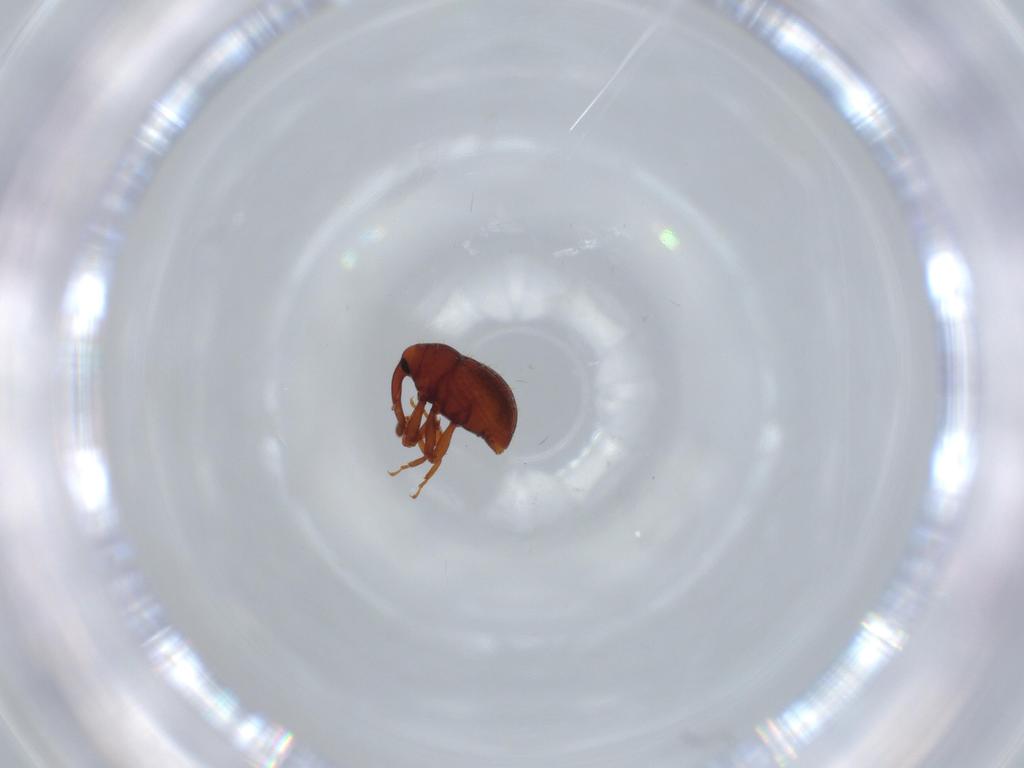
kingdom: Animalia
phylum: Arthropoda
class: Insecta
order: Coleoptera
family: Curculionidae
